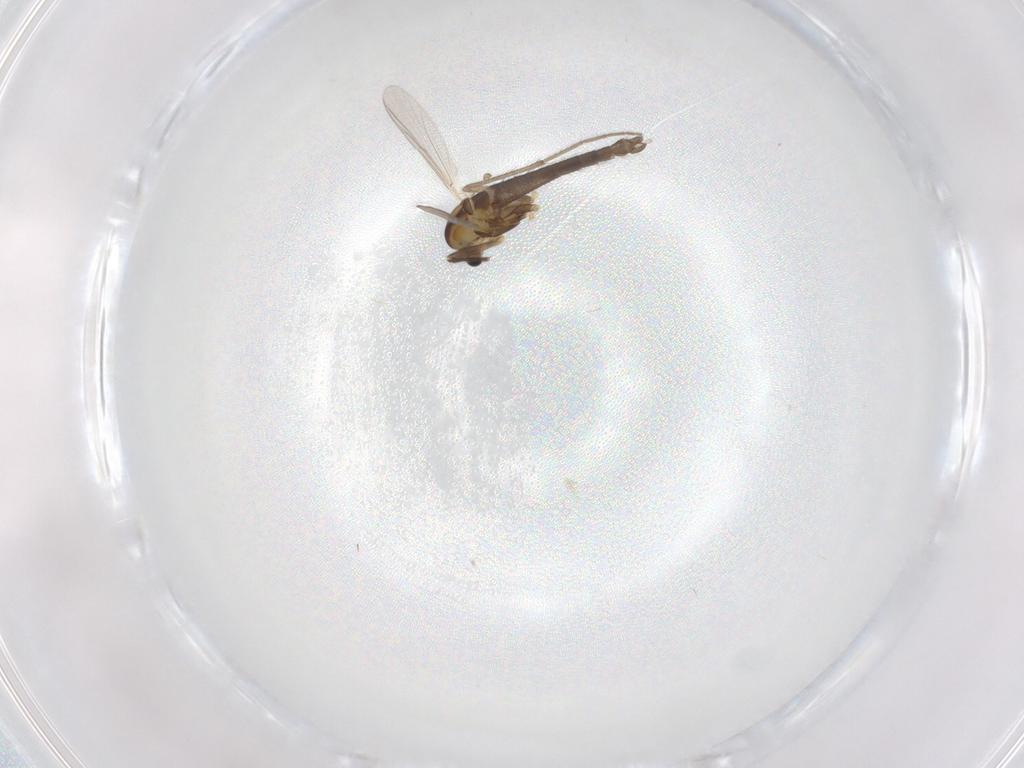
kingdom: Animalia
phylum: Arthropoda
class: Insecta
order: Diptera
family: Chironomidae
